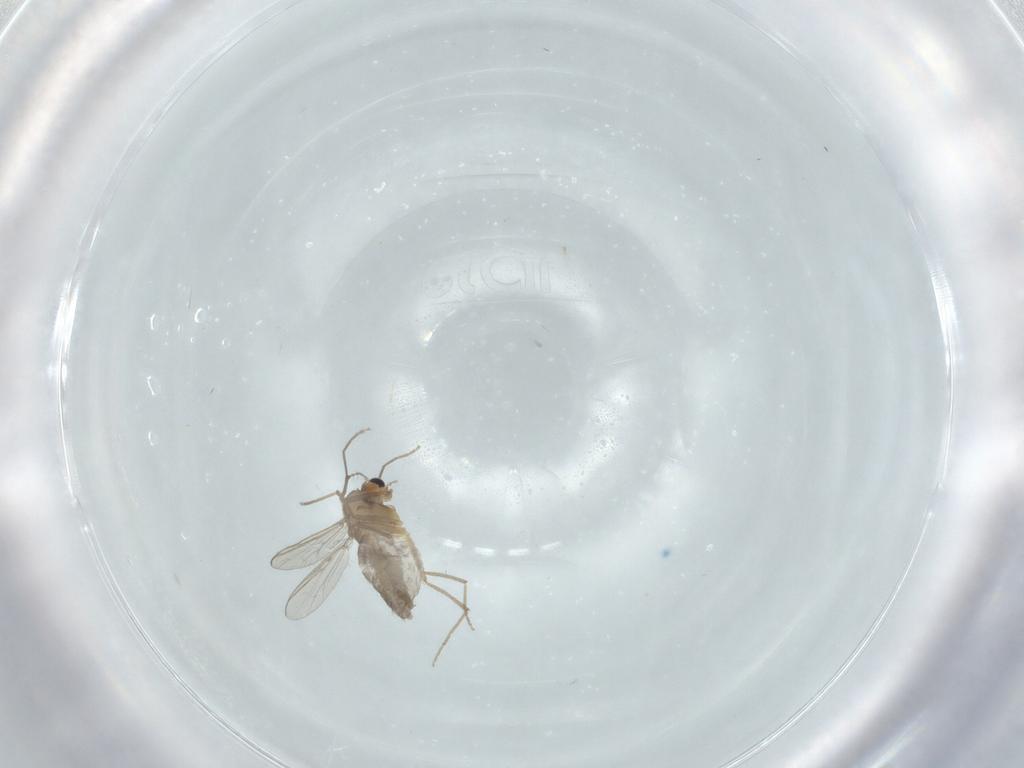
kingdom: Animalia
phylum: Arthropoda
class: Insecta
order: Diptera
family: Chironomidae
